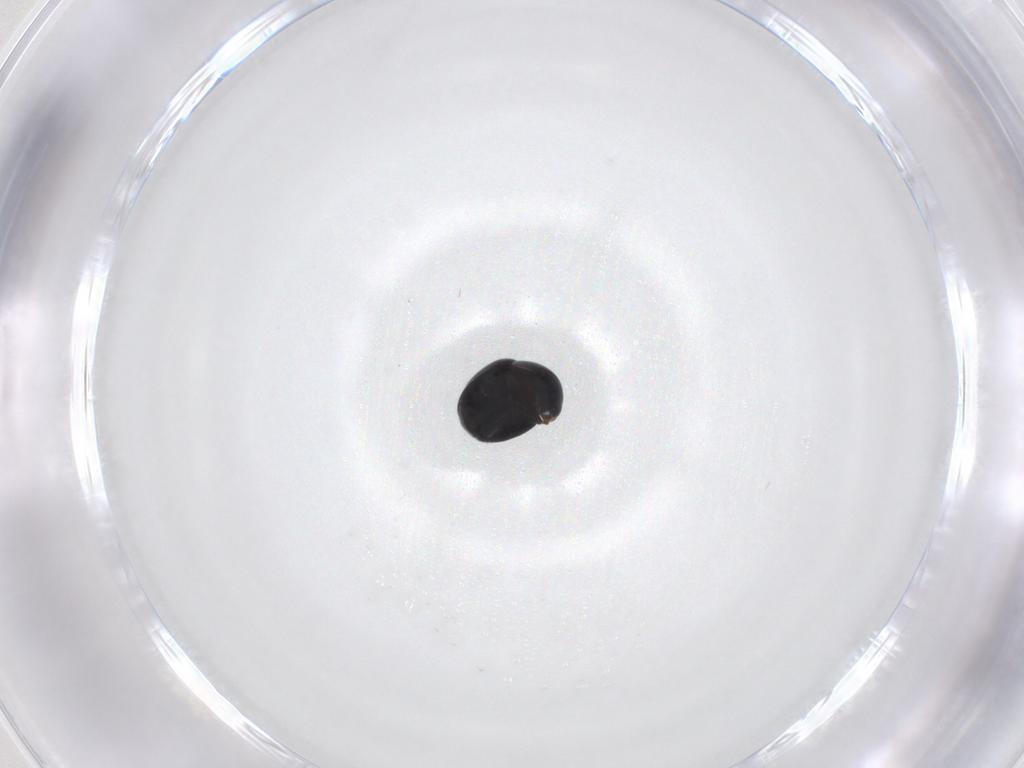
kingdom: Animalia
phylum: Arthropoda
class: Insecta
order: Coleoptera
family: Cybocephalidae
